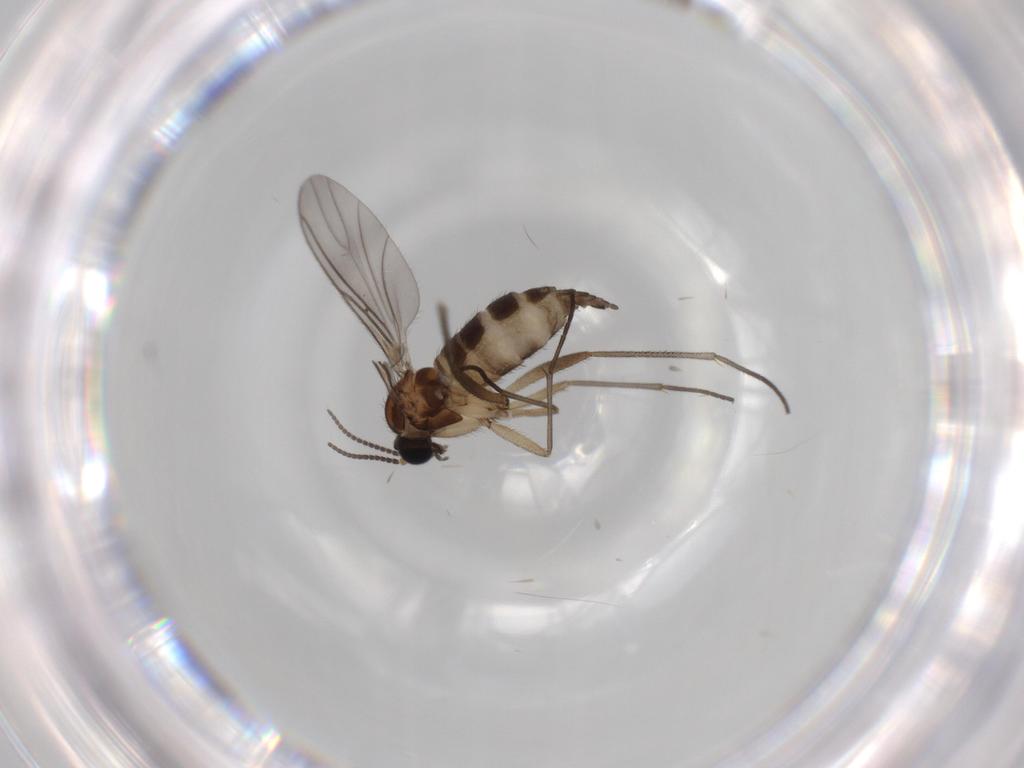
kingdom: Animalia
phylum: Arthropoda
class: Insecta
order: Diptera
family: Sciaridae
